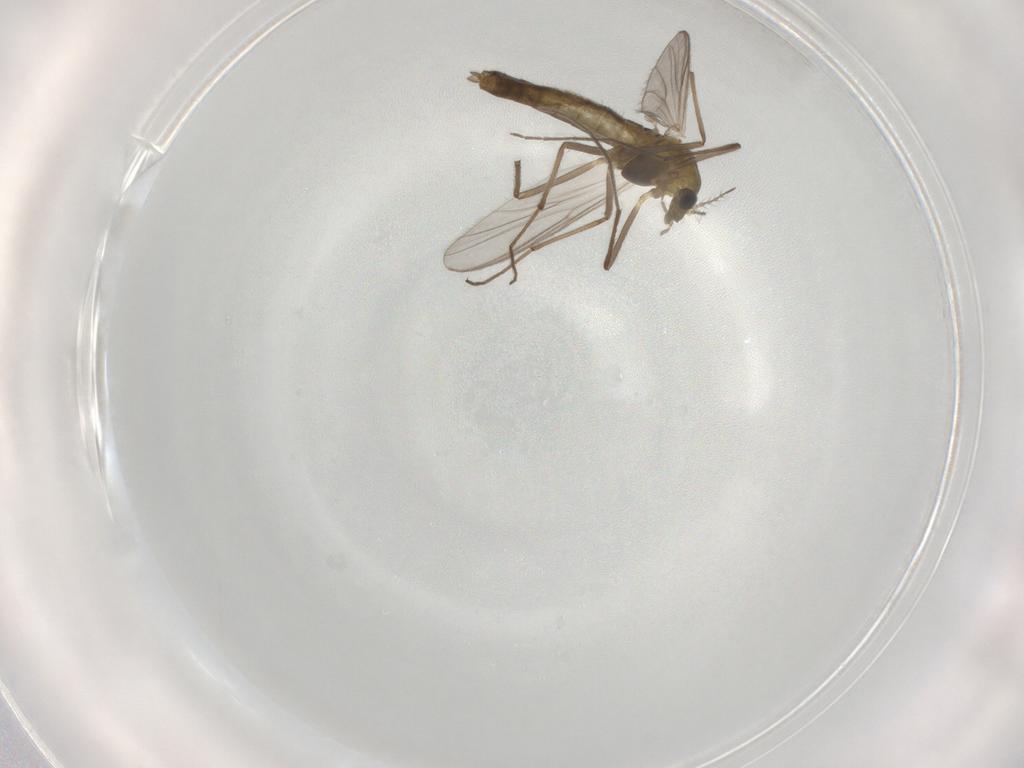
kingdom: Animalia
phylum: Arthropoda
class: Insecta
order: Diptera
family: Chironomidae
